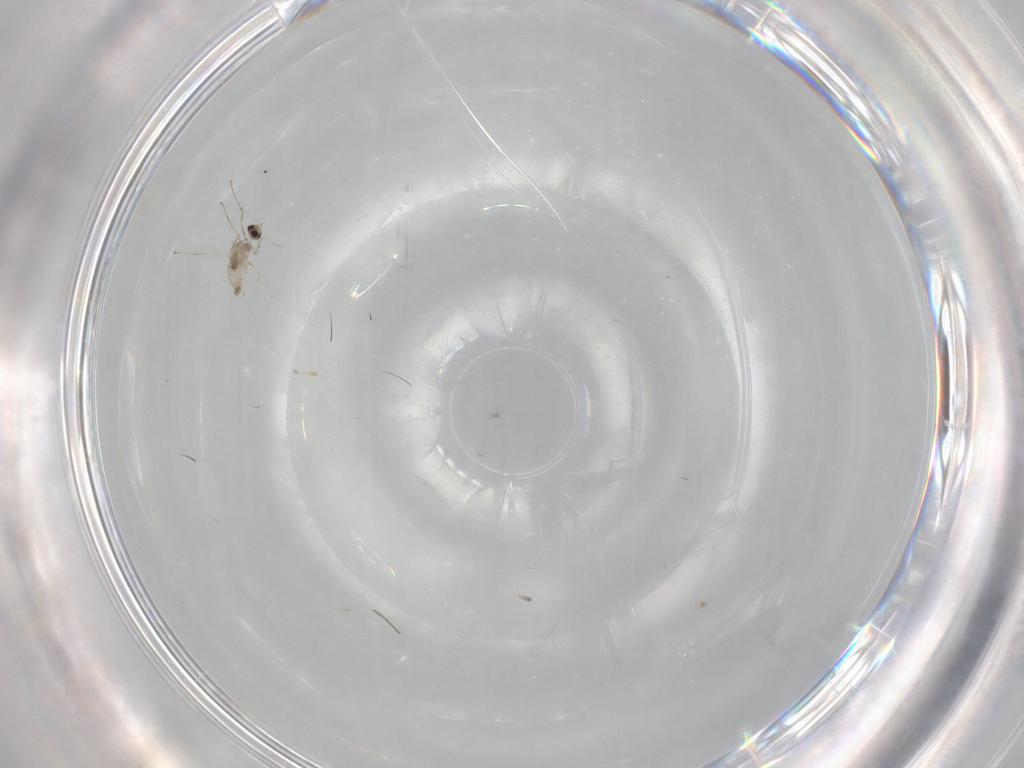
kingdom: Animalia
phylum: Arthropoda
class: Insecta
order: Diptera
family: Cecidomyiidae
